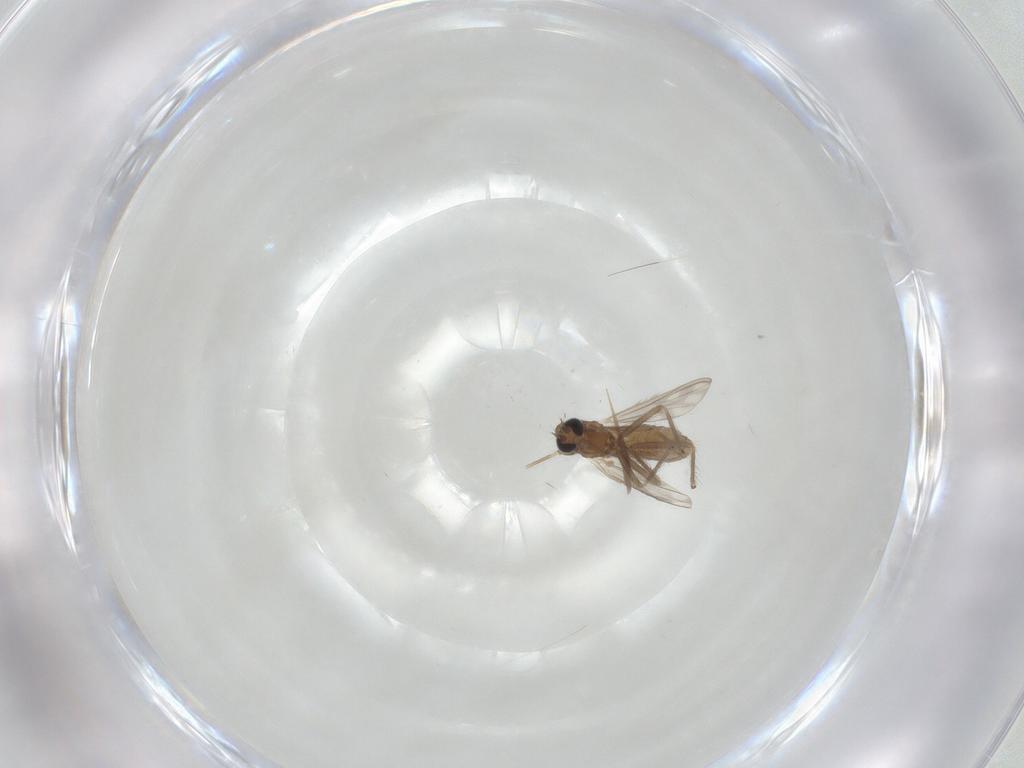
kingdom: Animalia
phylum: Arthropoda
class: Insecta
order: Diptera
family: Chironomidae
